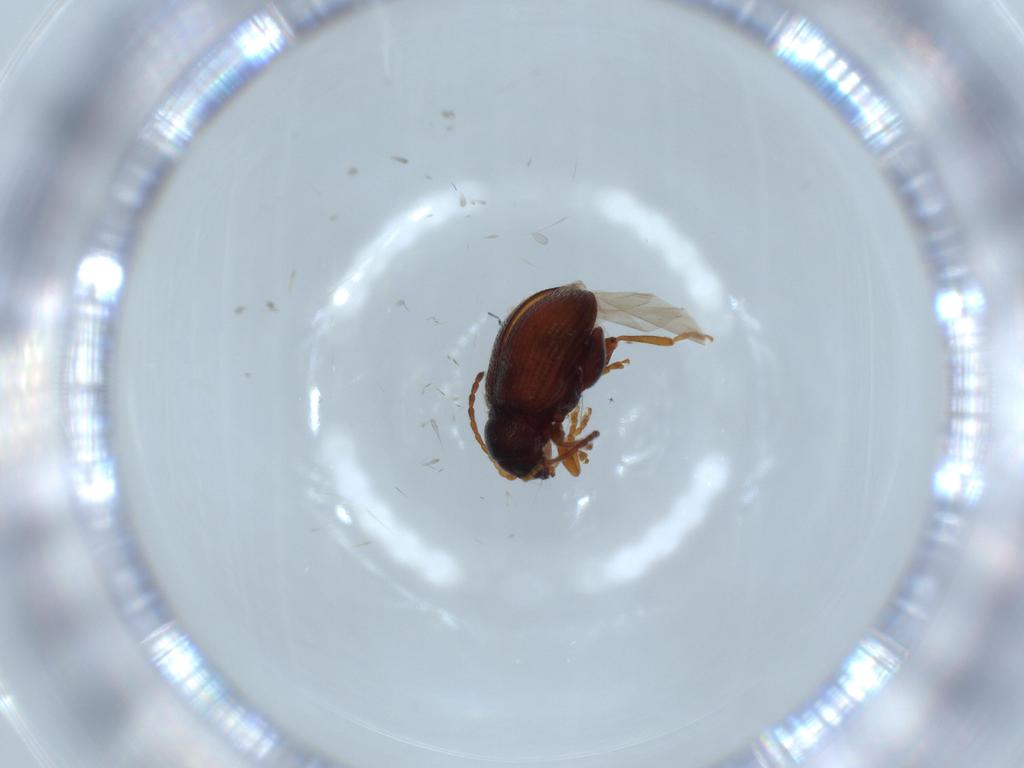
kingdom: Animalia
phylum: Arthropoda
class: Insecta
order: Coleoptera
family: Chrysomelidae
